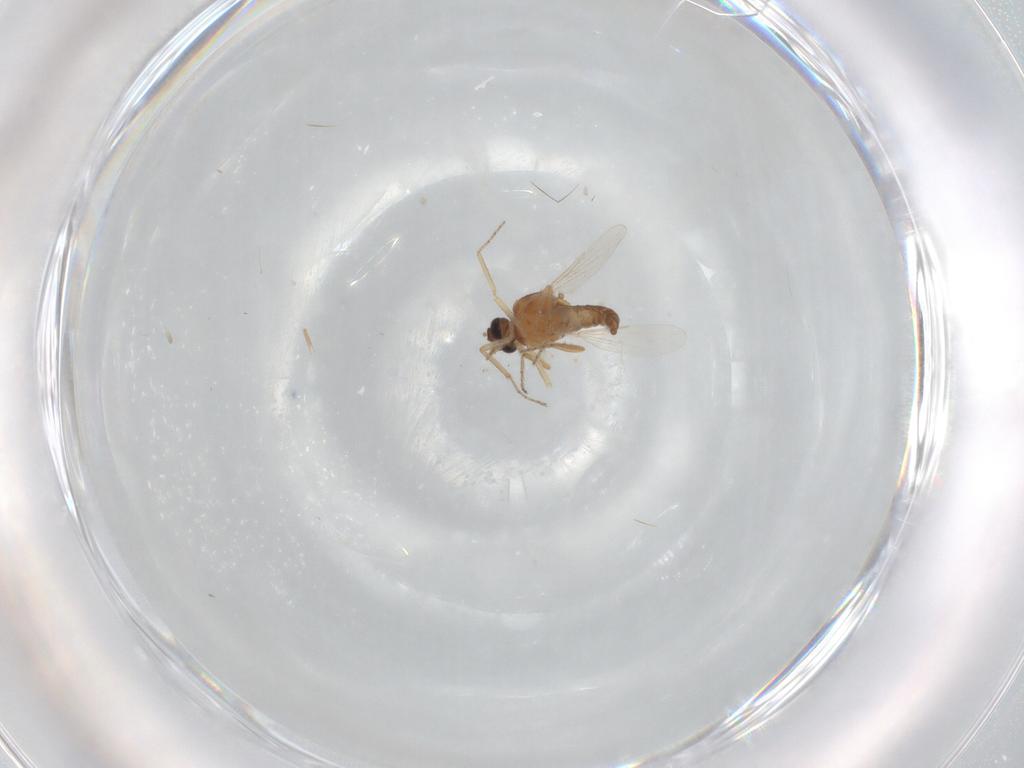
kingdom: Animalia
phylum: Arthropoda
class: Insecta
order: Diptera
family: Ceratopogonidae
